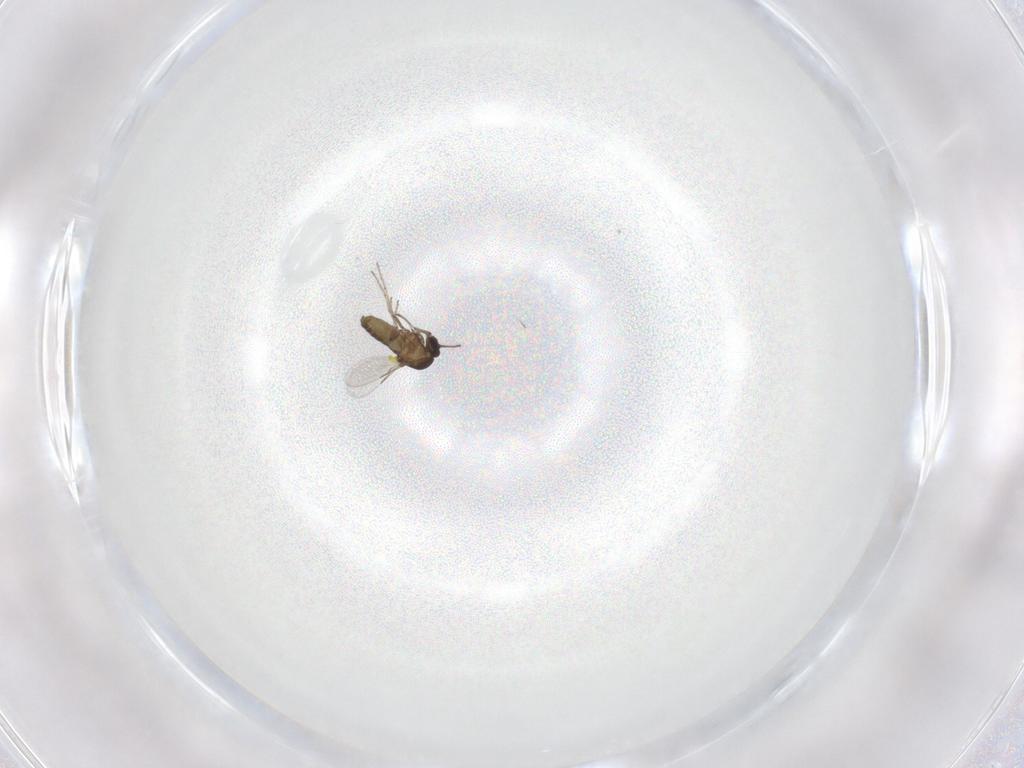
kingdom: Animalia
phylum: Arthropoda
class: Insecta
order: Diptera
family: Ceratopogonidae
